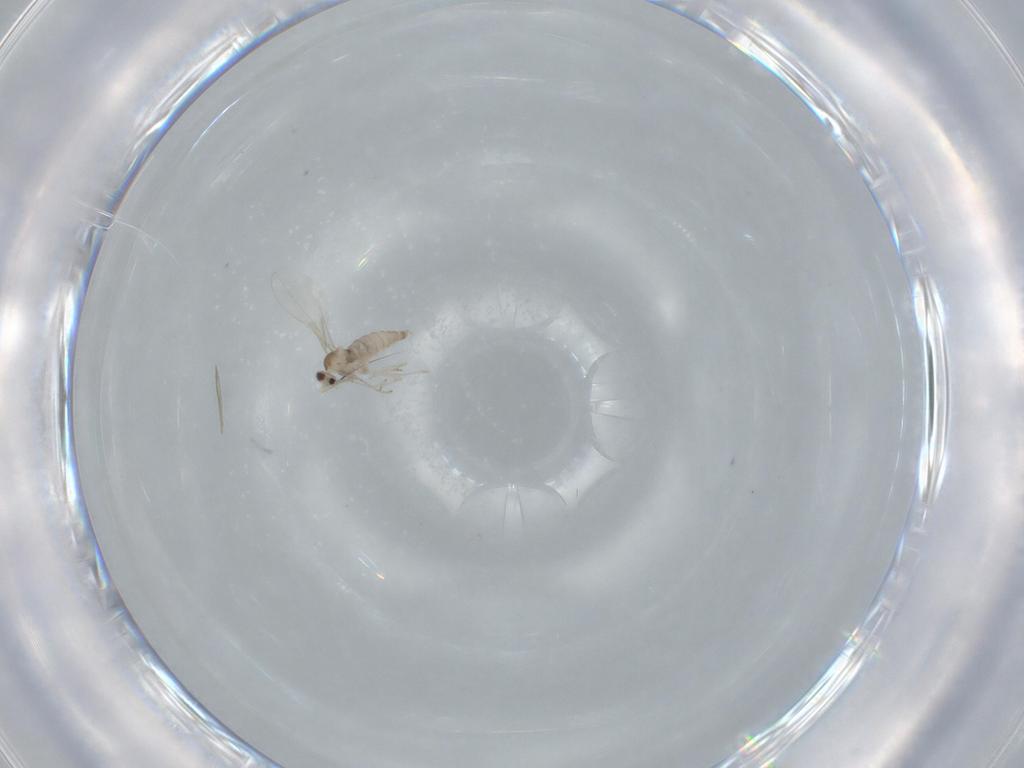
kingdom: Animalia
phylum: Arthropoda
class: Insecta
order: Diptera
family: Cecidomyiidae
